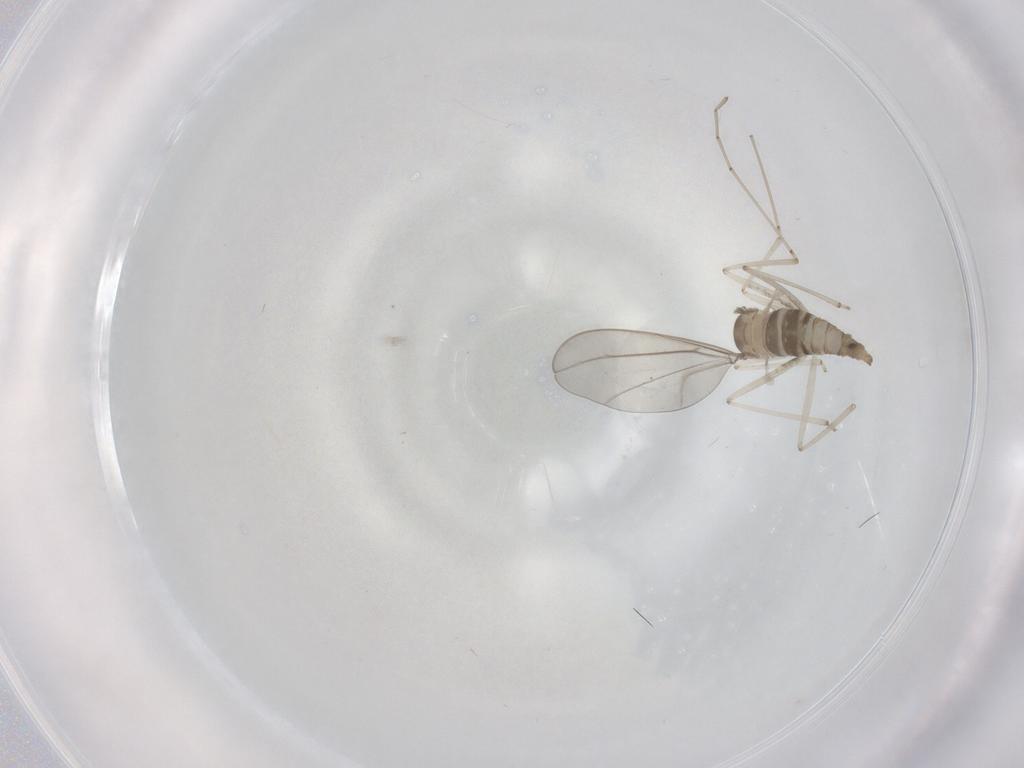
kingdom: Animalia
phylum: Arthropoda
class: Insecta
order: Diptera
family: Cecidomyiidae
